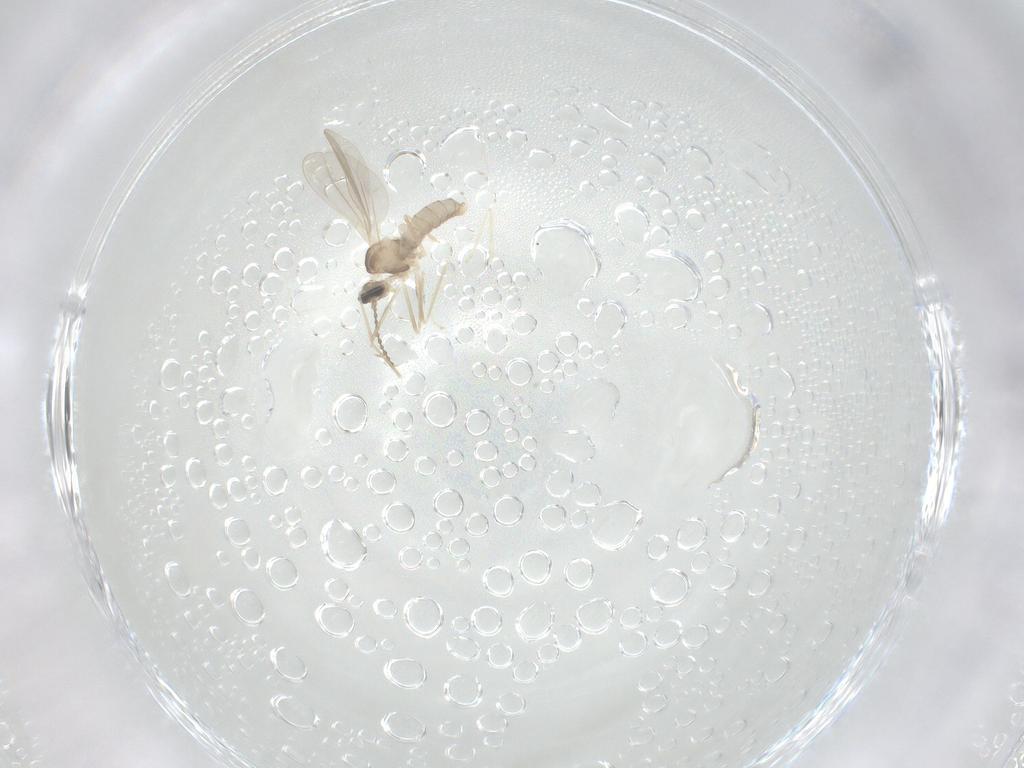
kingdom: Animalia
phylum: Arthropoda
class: Insecta
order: Diptera
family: Cecidomyiidae
